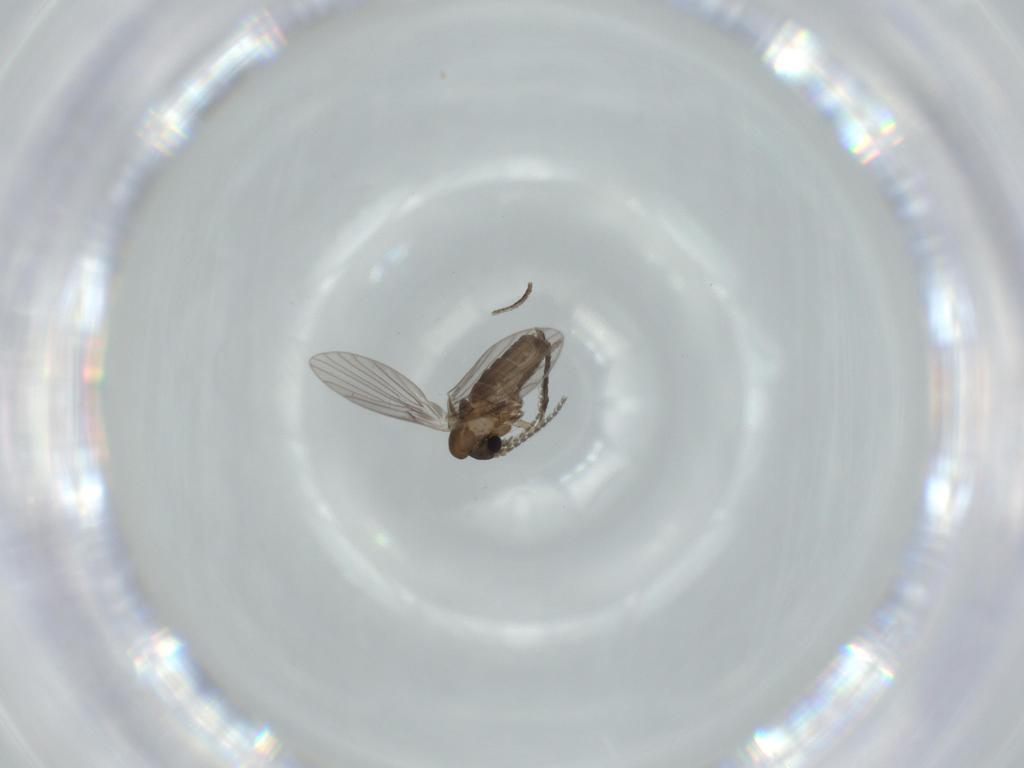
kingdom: Animalia
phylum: Arthropoda
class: Insecta
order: Diptera
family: Psychodidae
